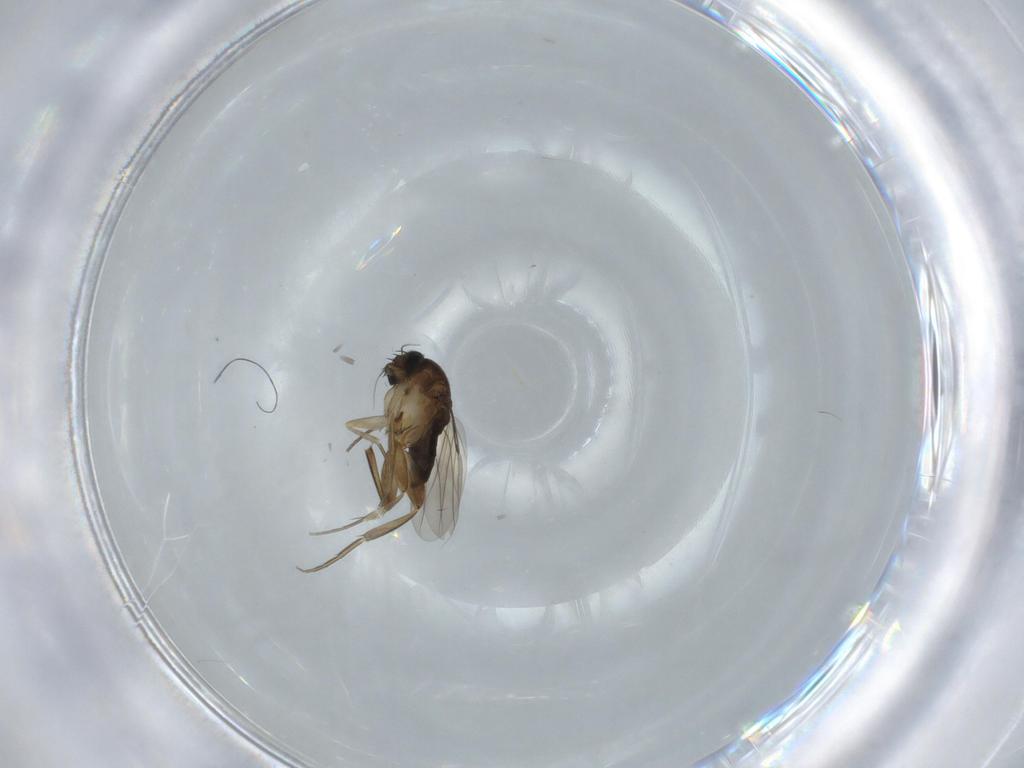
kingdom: Animalia
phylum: Arthropoda
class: Insecta
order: Diptera
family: Phoridae
